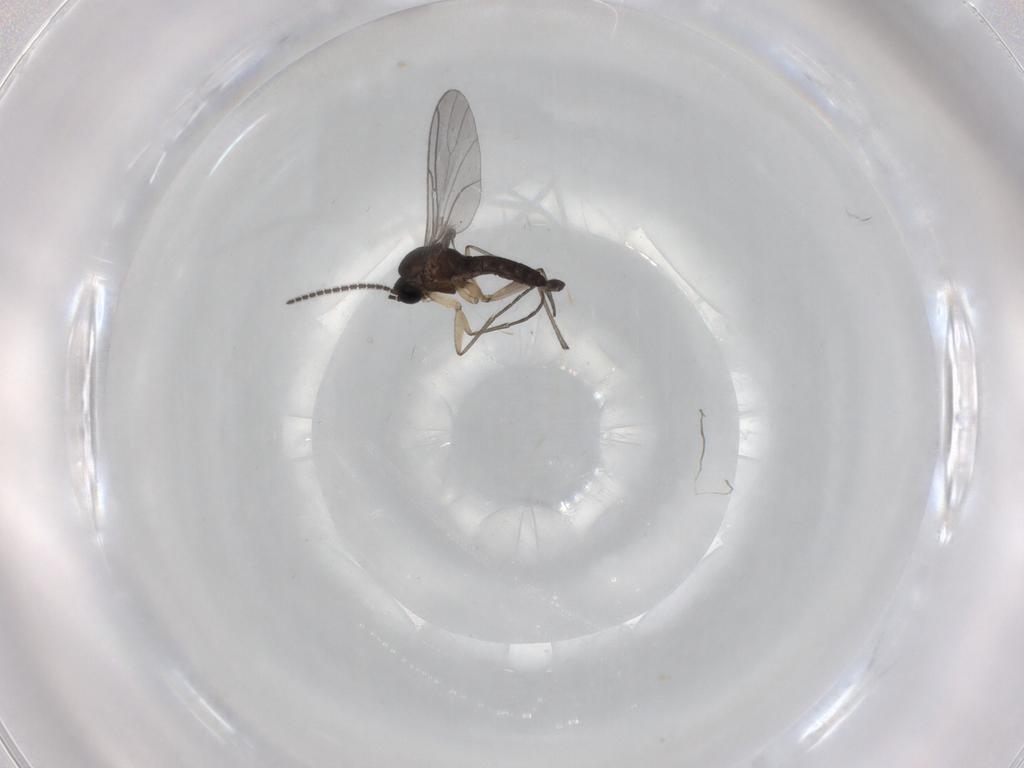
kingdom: Animalia
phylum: Arthropoda
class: Insecta
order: Diptera
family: Sciaridae
